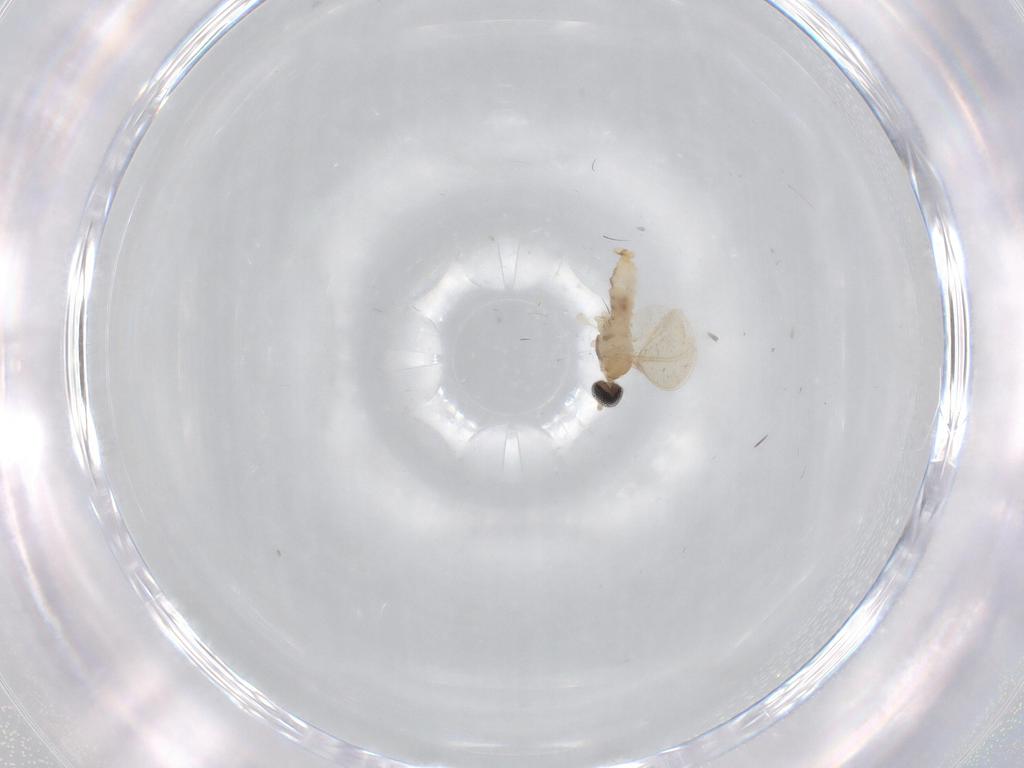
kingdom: Animalia
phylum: Arthropoda
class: Insecta
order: Diptera
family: Cecidomyiidae
